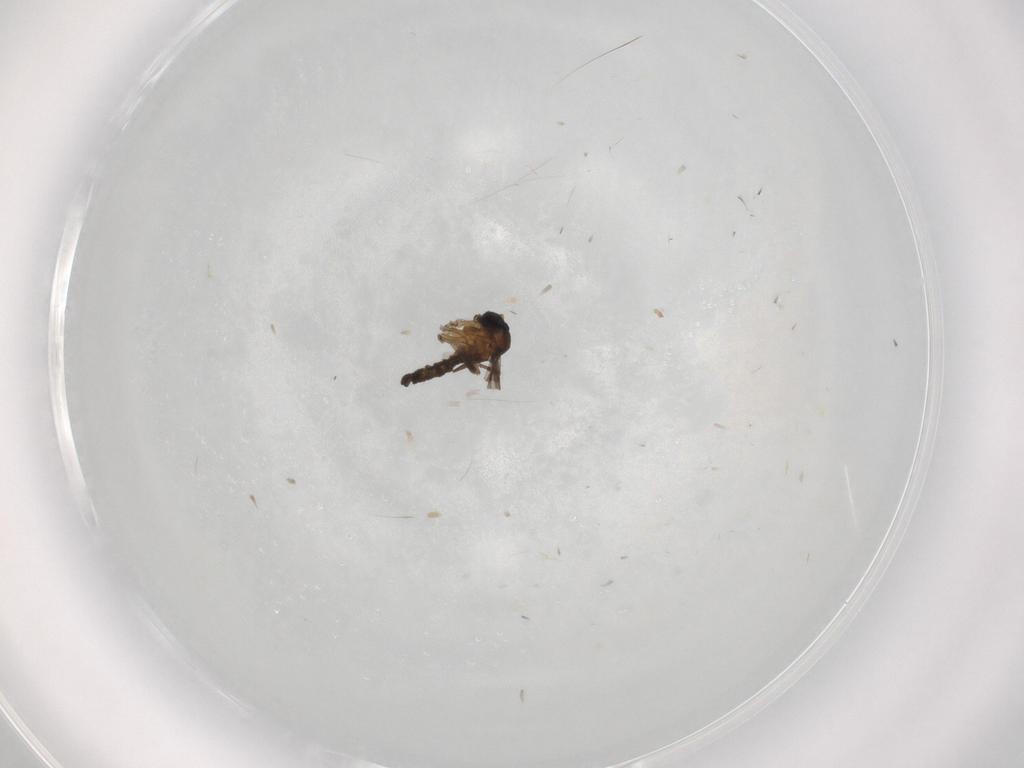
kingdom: Animalia
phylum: Arthropoda
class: Insecta
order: Diptera
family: Sciaridae
